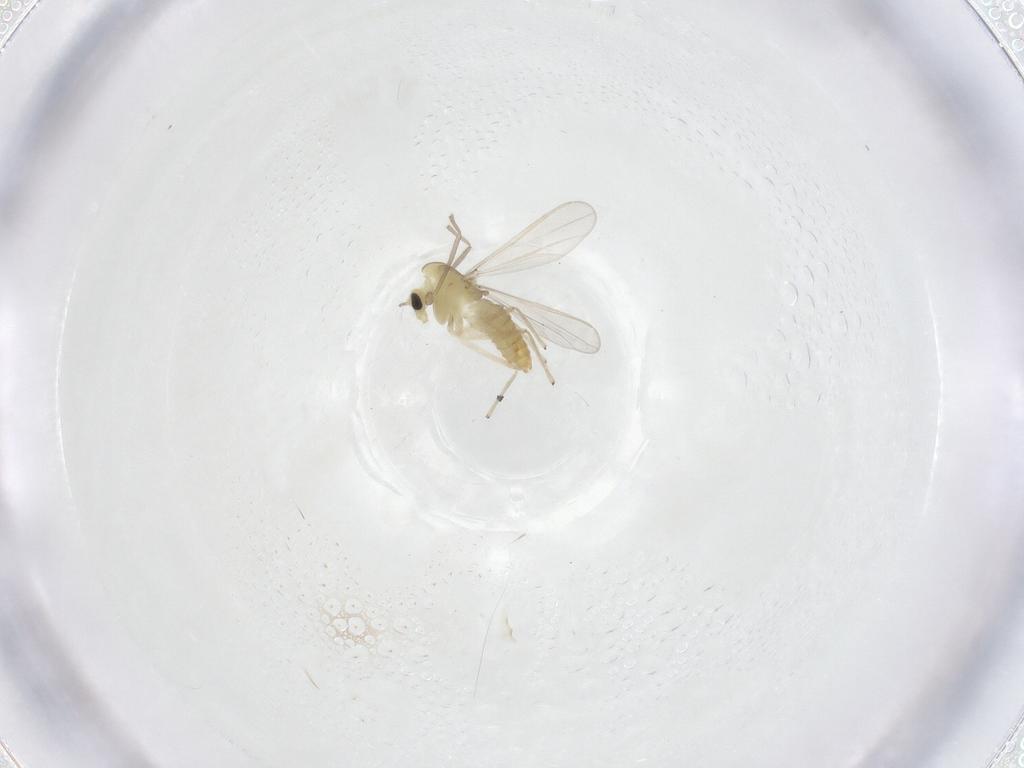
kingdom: Animalia
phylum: Arthropoda
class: Insecta
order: Diptera
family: Chironomidae
